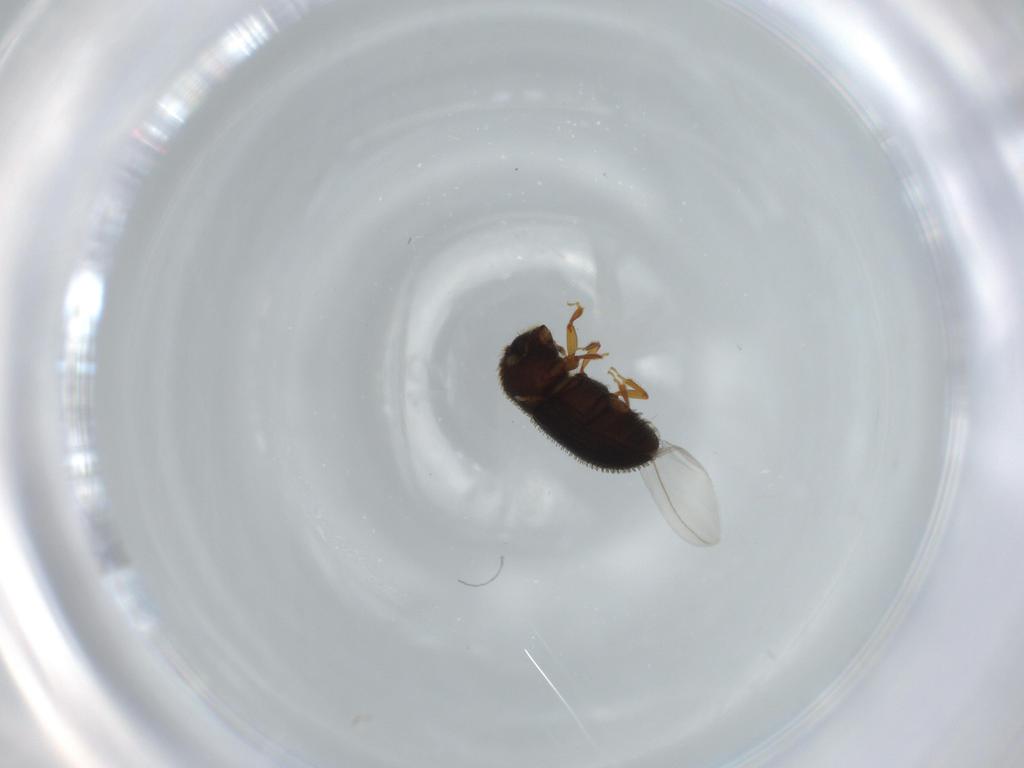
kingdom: Animalia
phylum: Arthropoda
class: Insecta
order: Coleoptera
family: Curculionidae
